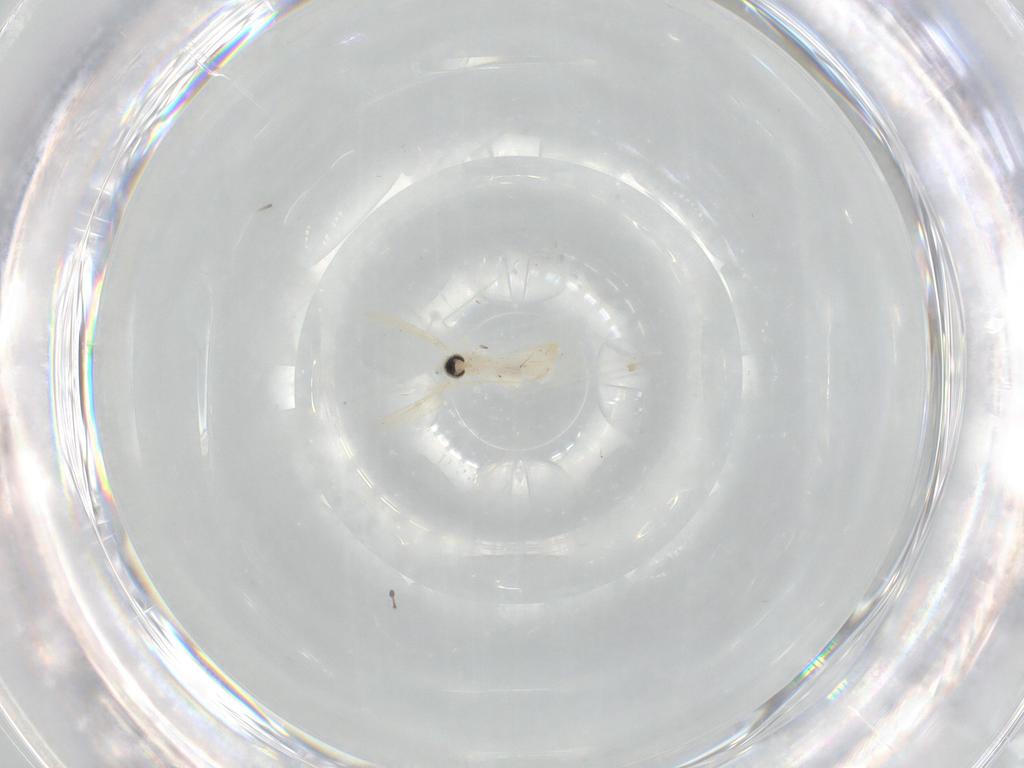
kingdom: Animalia
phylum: Arthropoda
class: Insecta
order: Diptera
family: Cecidomyiidae
